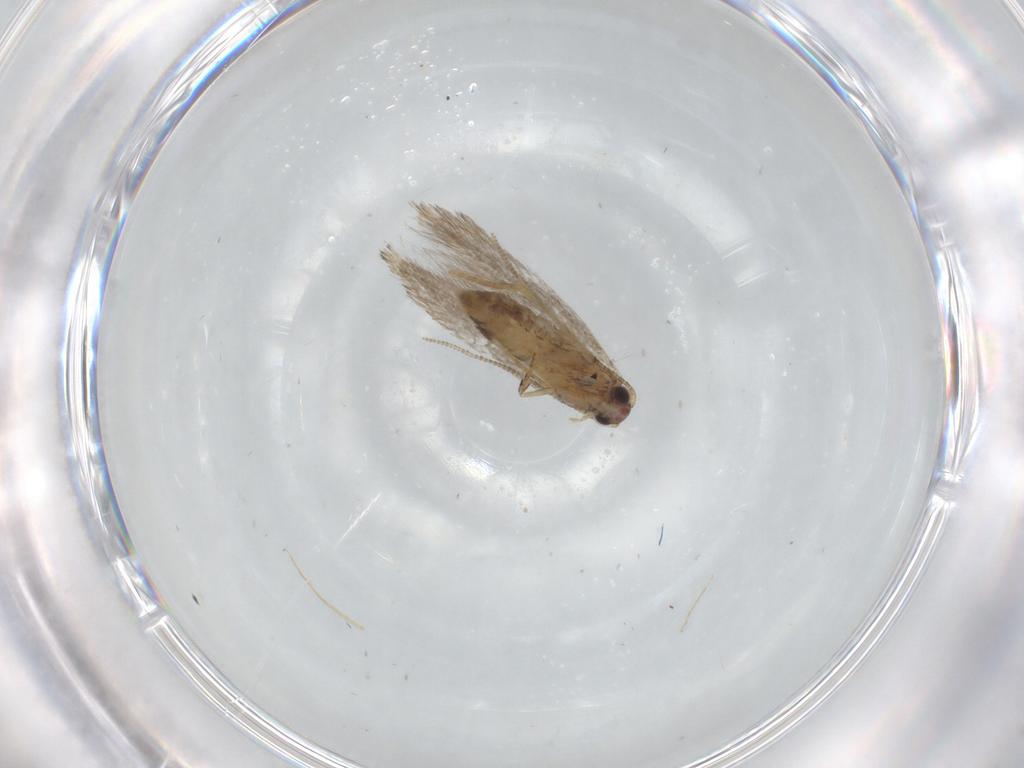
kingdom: Animalia
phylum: Arthropoda
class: Insecta
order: Lepidoptera
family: Tineidae
